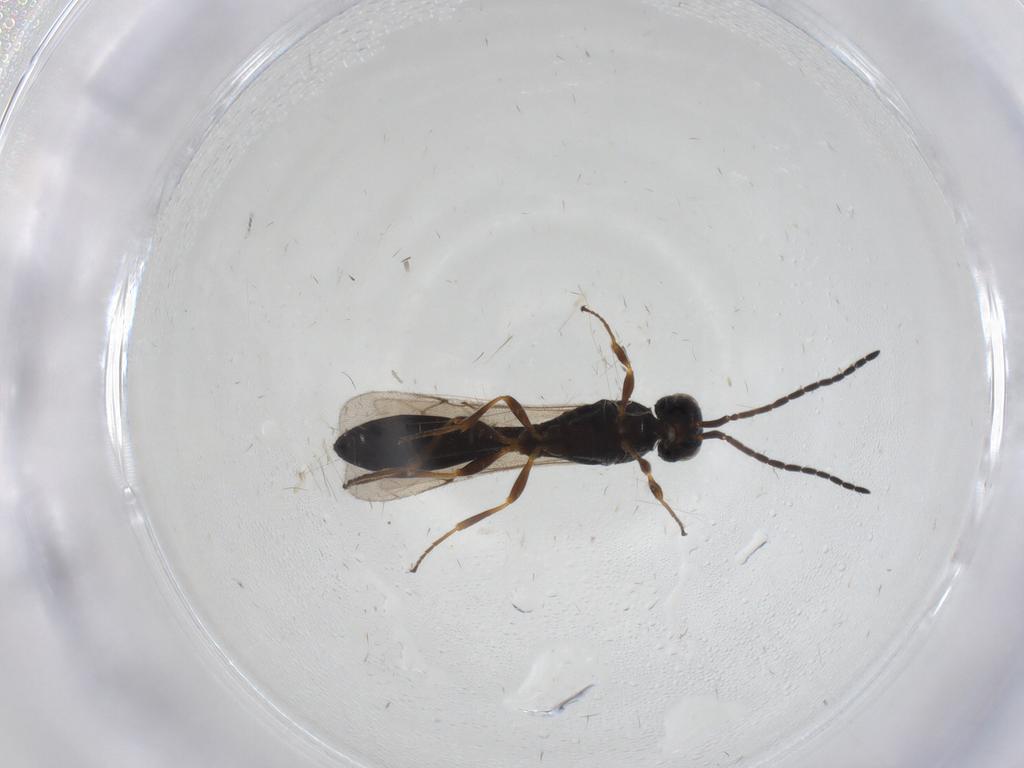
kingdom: Animalia
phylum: Arthropoda
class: Insecta
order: Hymenoptera
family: Scelionidae
